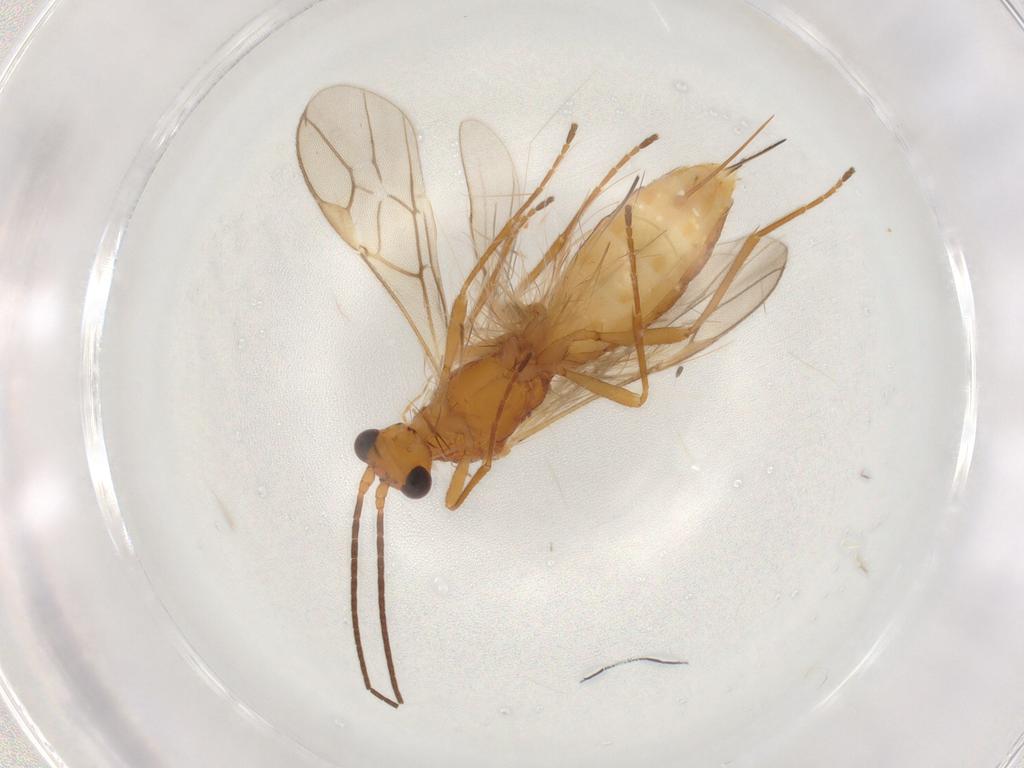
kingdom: Animalia
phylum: Arthropoda
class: Insecta
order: Hymenoptera
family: Braconidae
